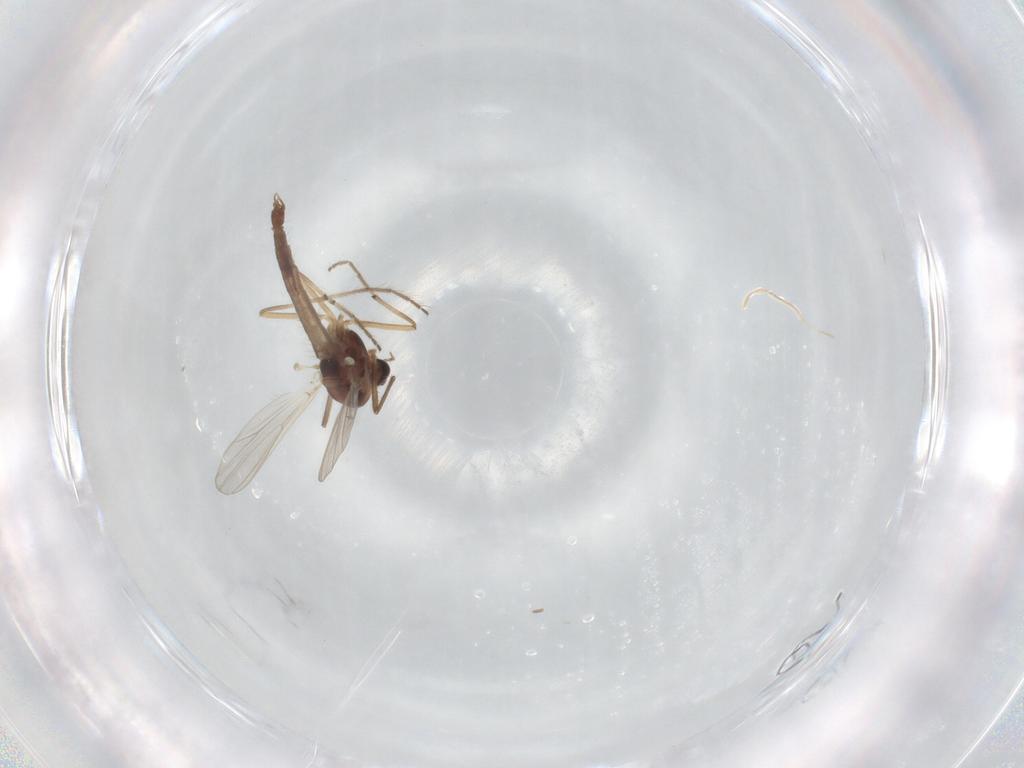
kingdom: Animalia
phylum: Arthropoda
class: Insecta
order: Diptera
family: Chironomidae
